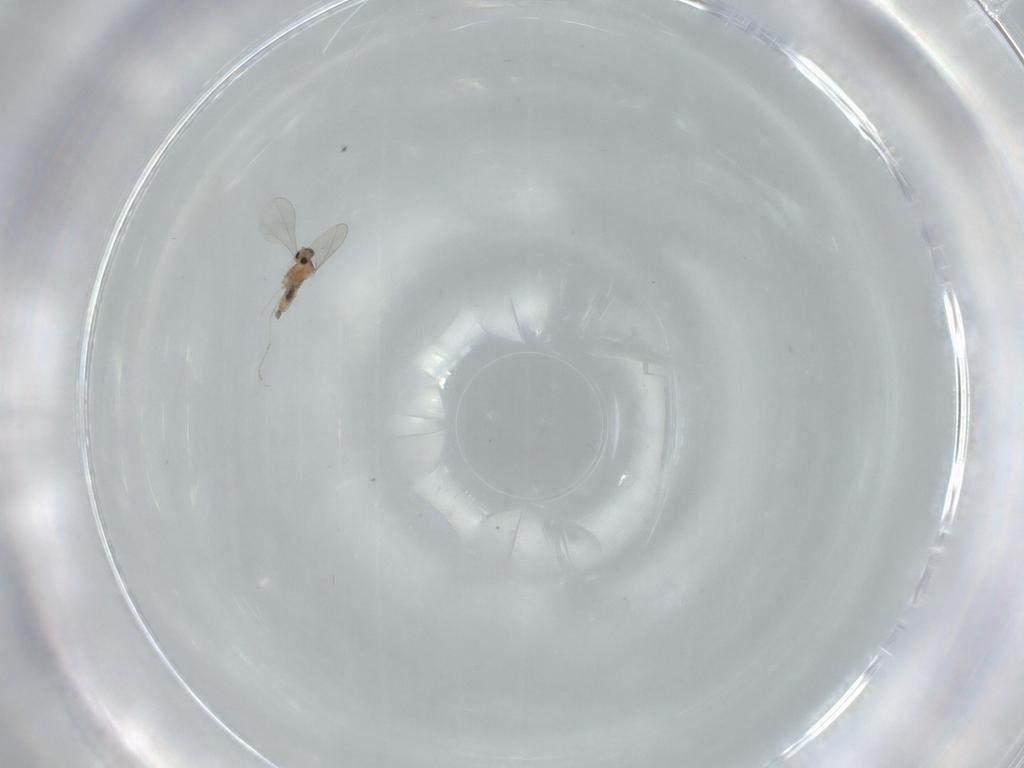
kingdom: Animalia
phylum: Arthropoda
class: Insecta
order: Diptera
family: Cecidomyiidae
